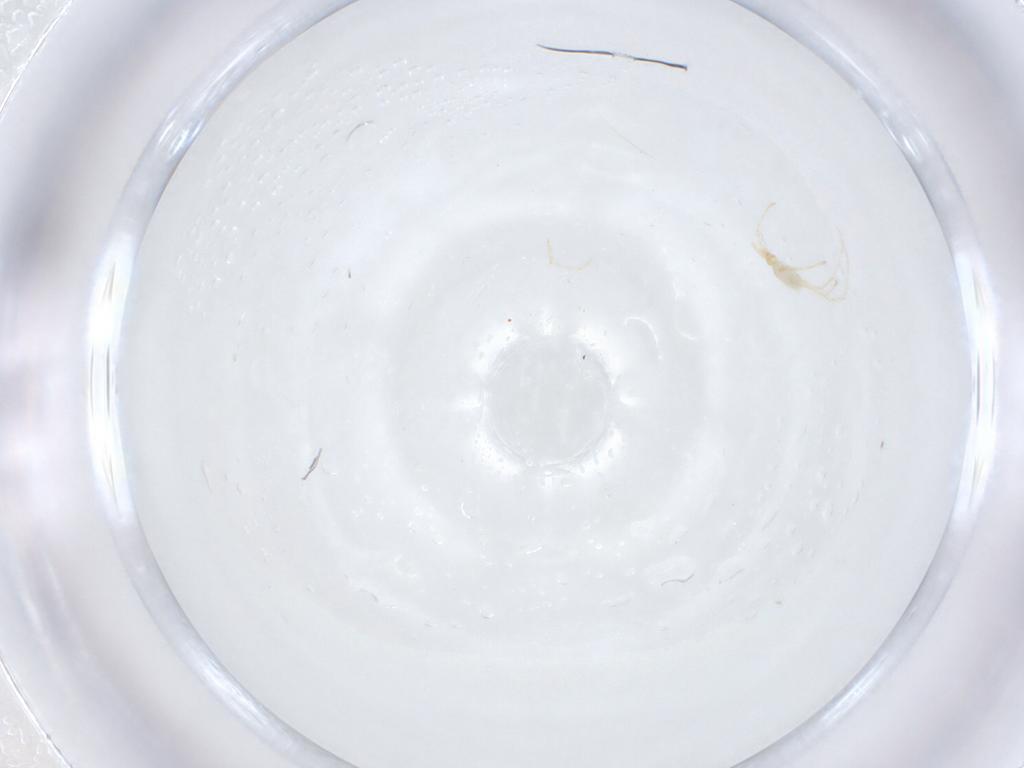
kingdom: Animalia
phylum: Arthropoda
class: Arachnida
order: Trombidiformes
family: Erythraeidae
